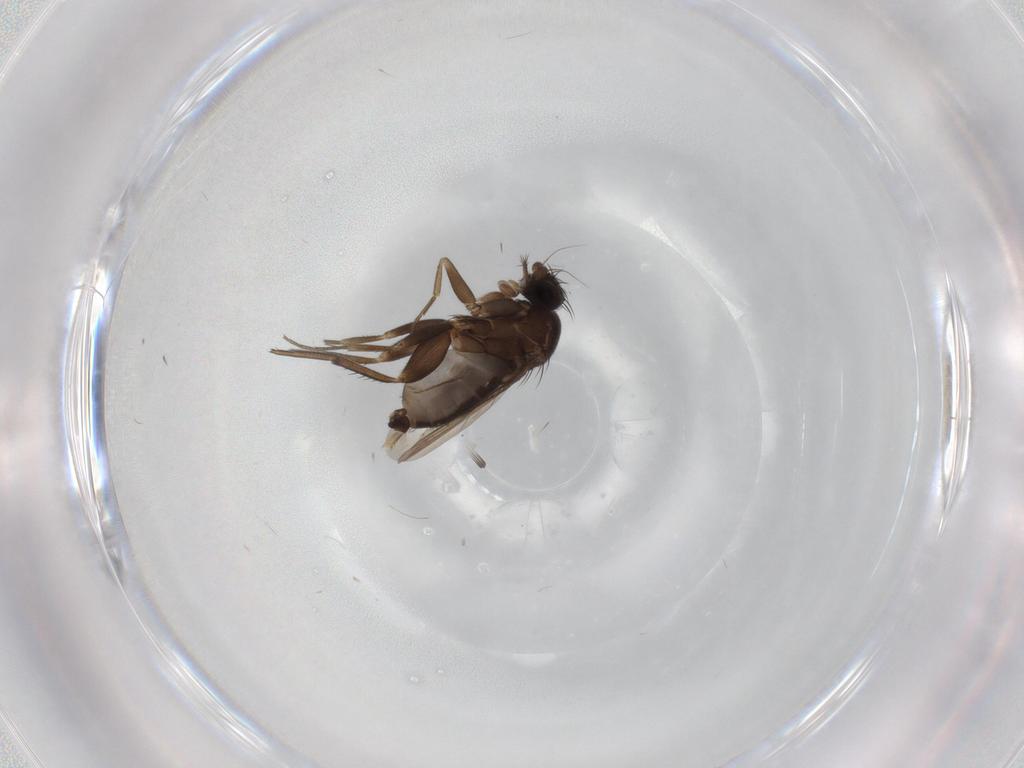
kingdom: Animalia
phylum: Arthropoda
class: Insecta
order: Diptera
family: Phoridae
